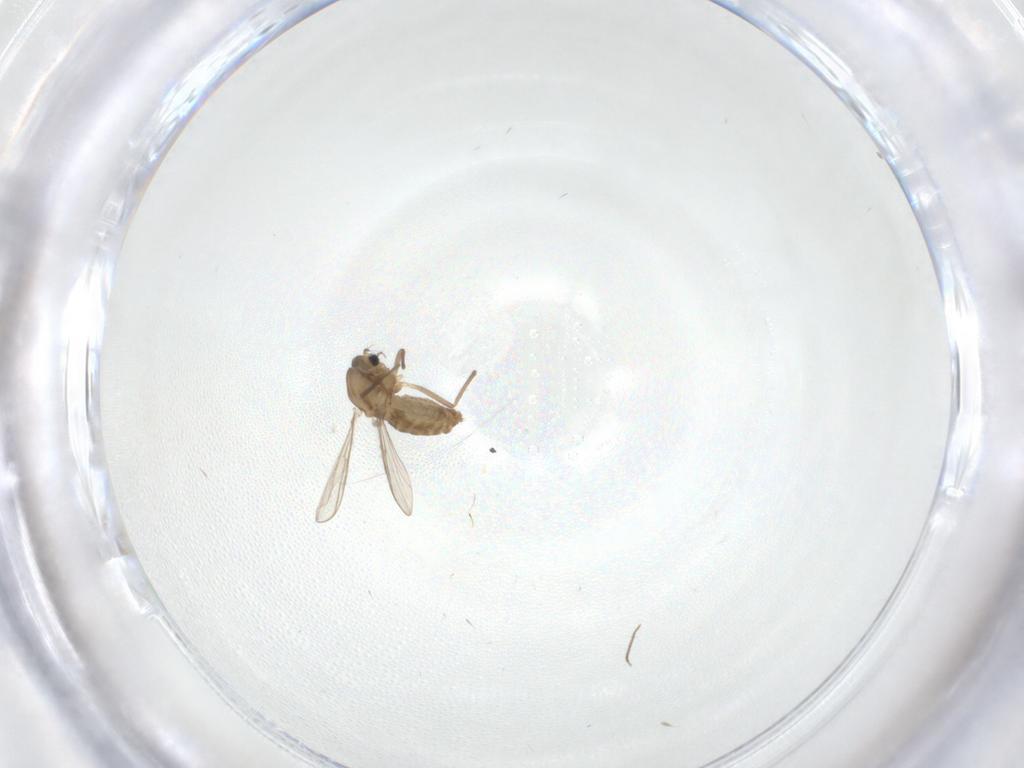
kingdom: Animalia
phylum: Arthropoda
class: Insecta
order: Diptera
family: Chironomidae
